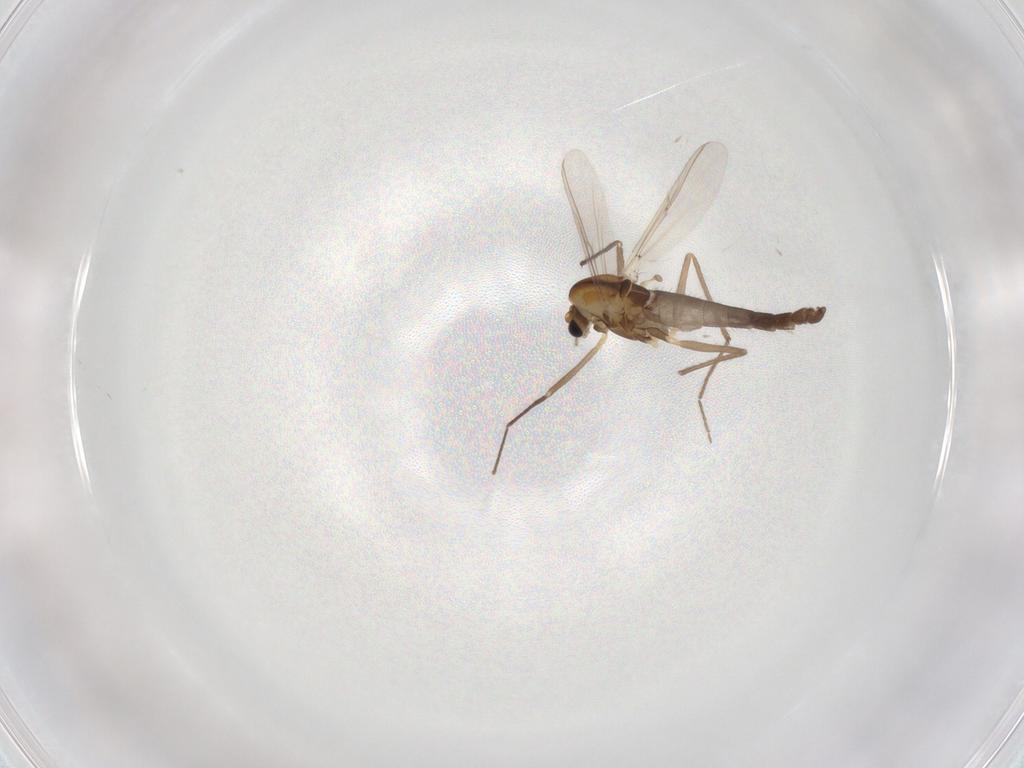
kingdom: Animalia
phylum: Arthropoda
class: Insecta
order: Diptera
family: Chironomidae
